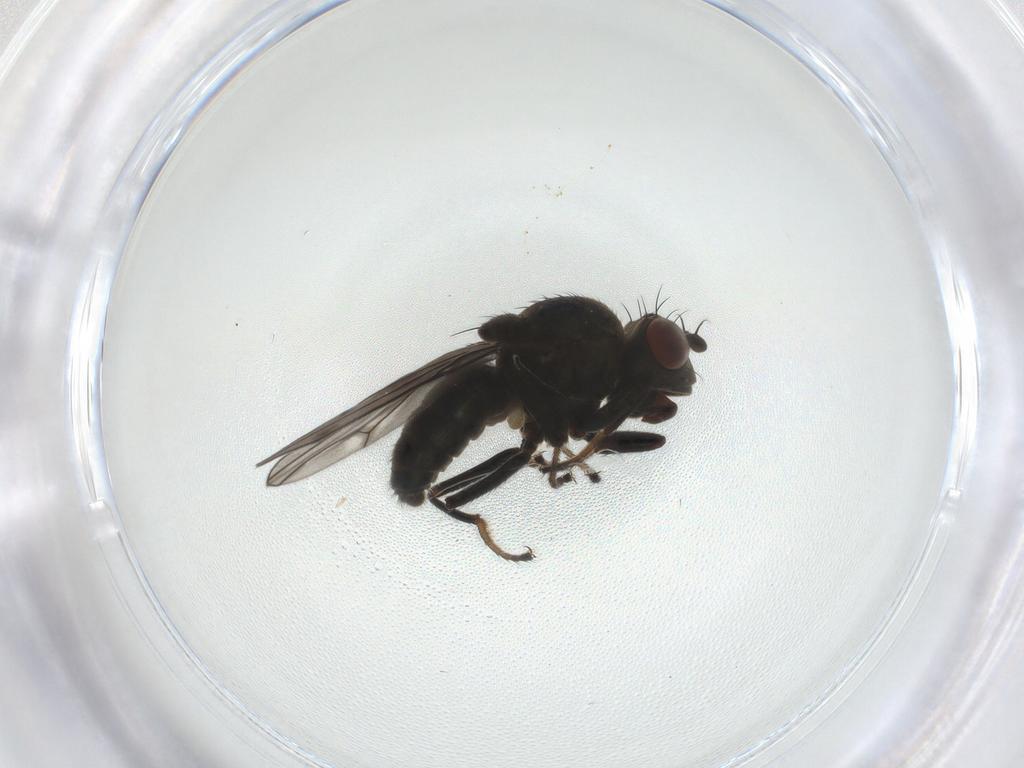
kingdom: Animalia
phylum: Arthropoda
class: Insecta
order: Diptera
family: Ephydridae
